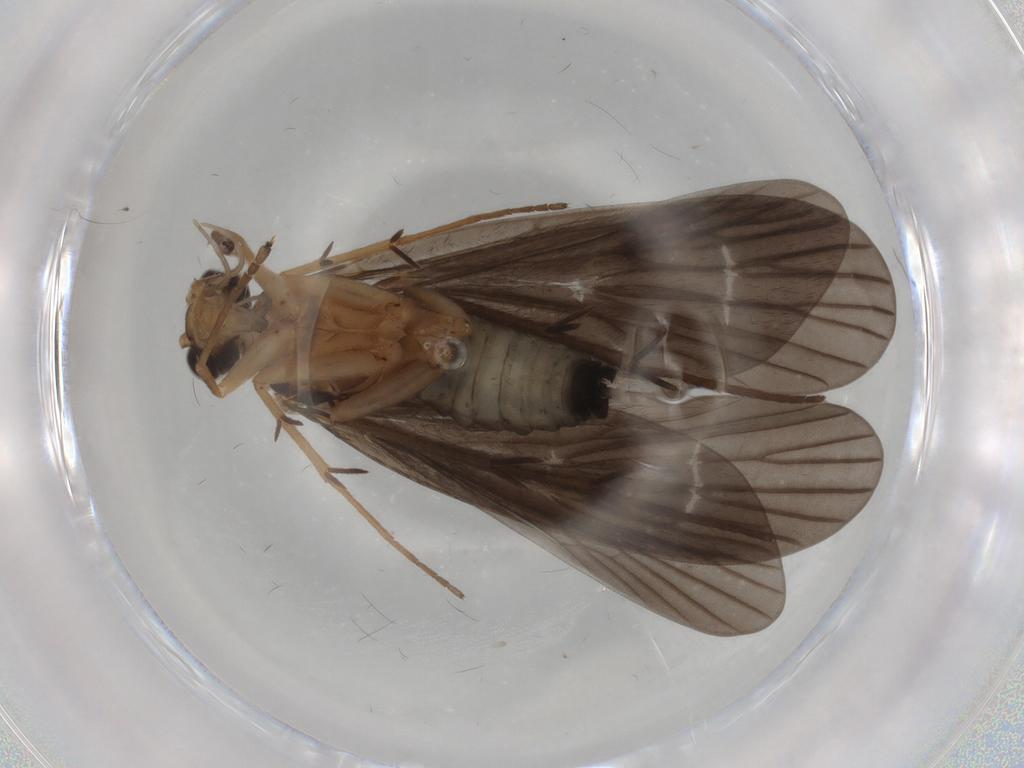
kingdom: Animalia
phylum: Arthropoda
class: Insecta
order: Trichoptera
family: Philopotamidae
